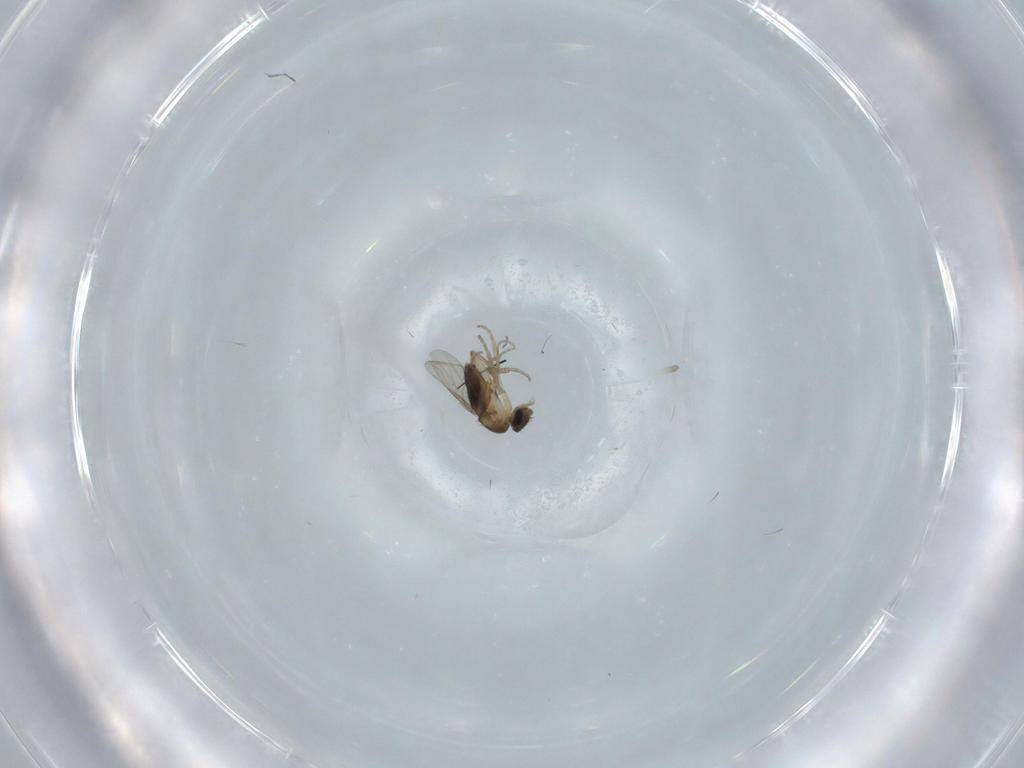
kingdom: Animalia
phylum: Arthropoda
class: Insecta
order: Diptera
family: Phoridae
